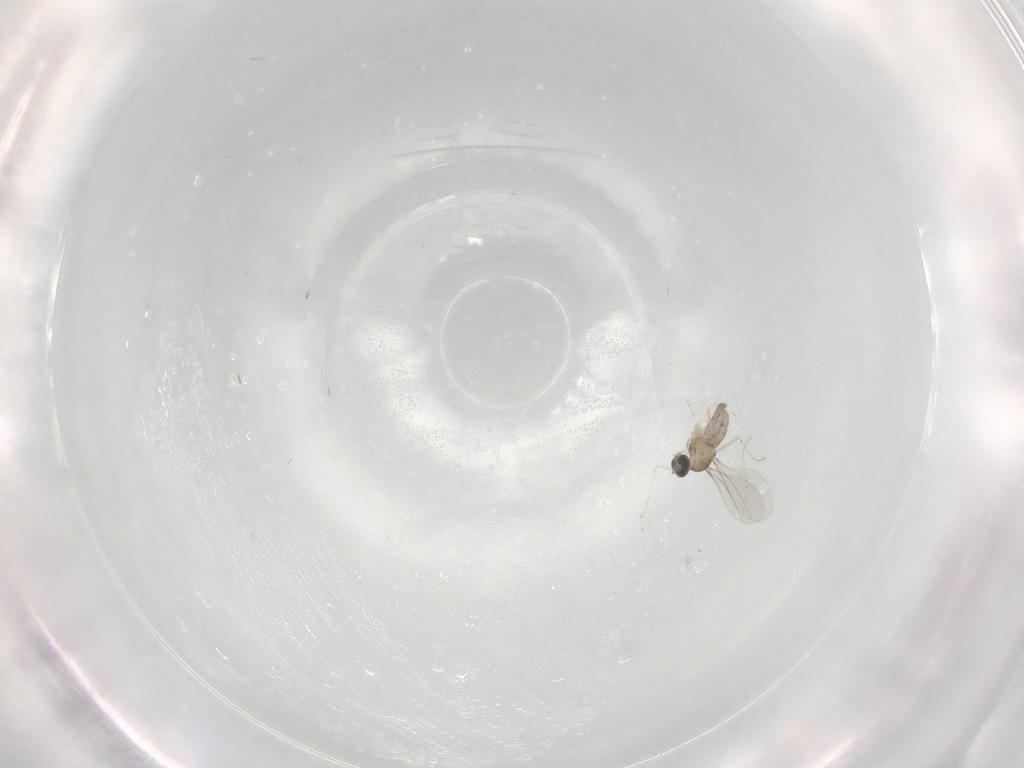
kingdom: Animalia
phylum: Arthropoda
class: Insecta
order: Diptera
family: Cecidomyiidae
